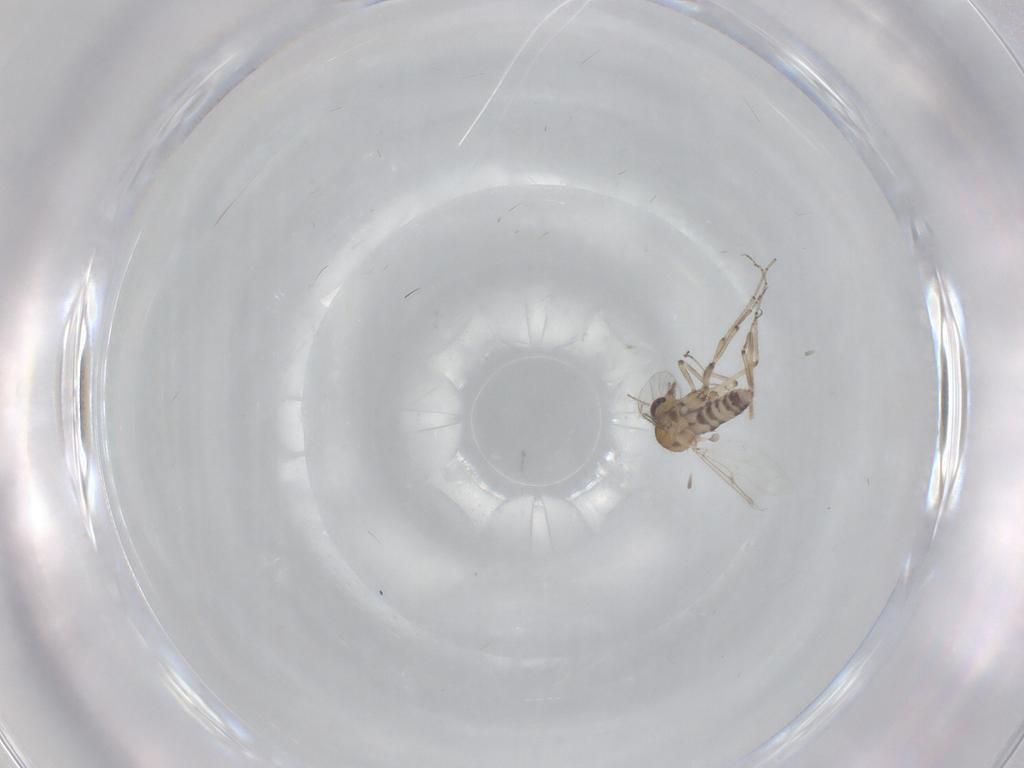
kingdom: Animalia
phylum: Arthropoda
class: Insecta
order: Diptera
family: Ceratopogonidae
